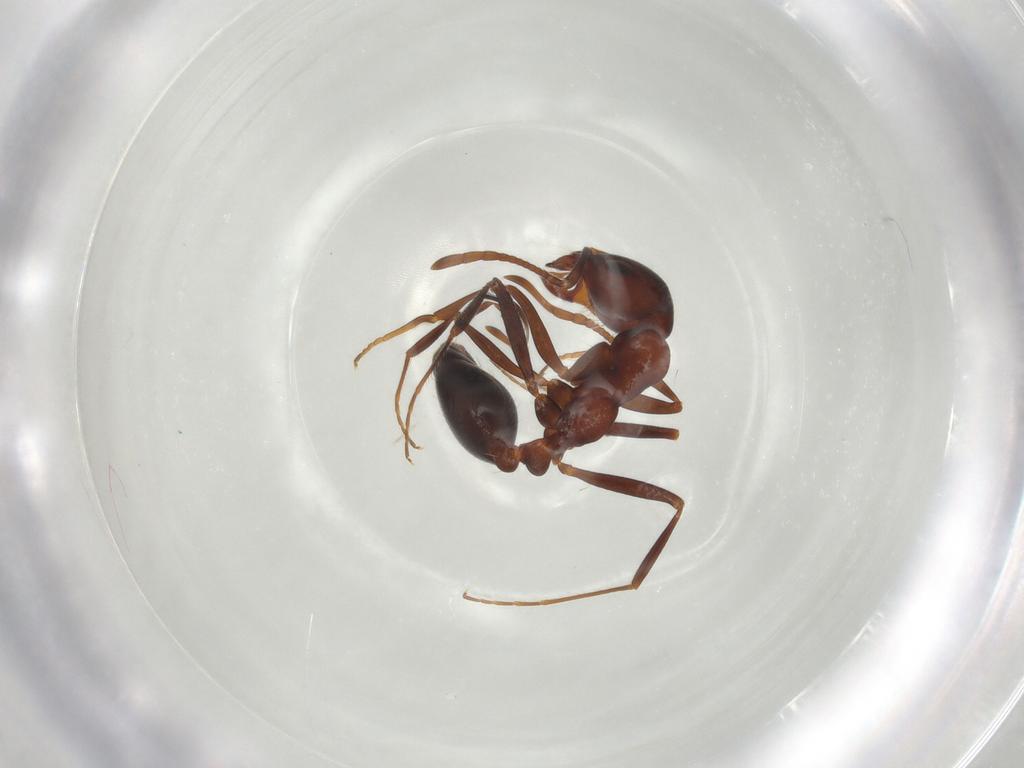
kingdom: Animalia
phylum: Arthropoda
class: Insecta
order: Hymenoptera
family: Formicidae
